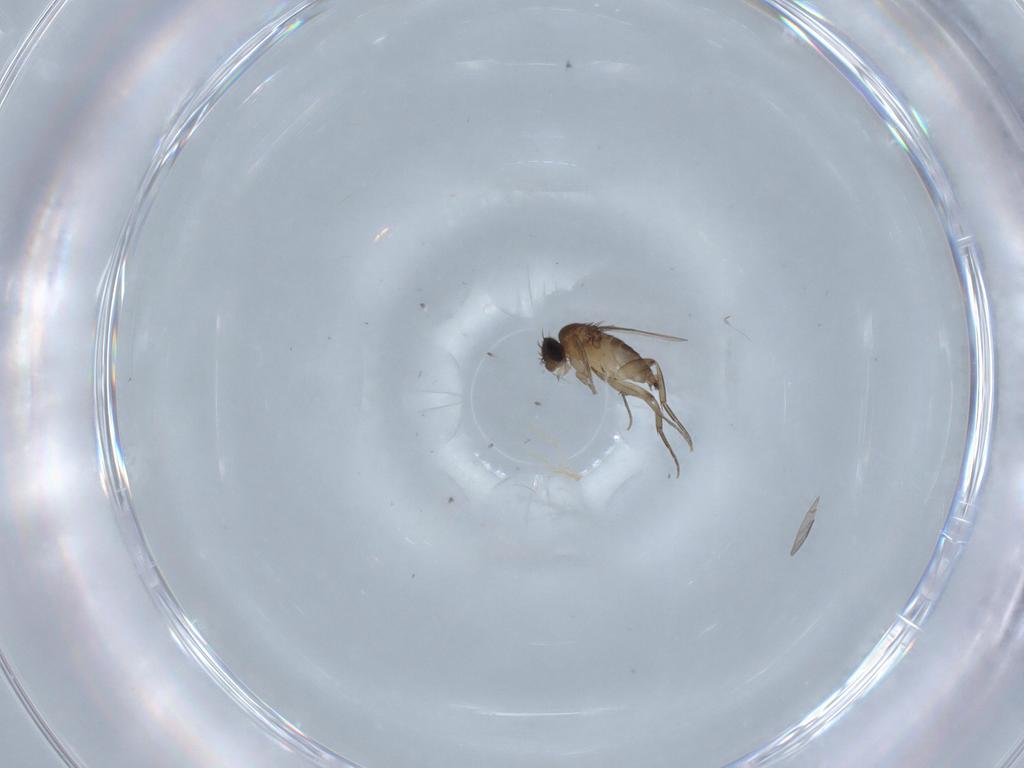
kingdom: Animalia
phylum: Arthropoda
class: Insecta
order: Diptera
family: Phoridae
